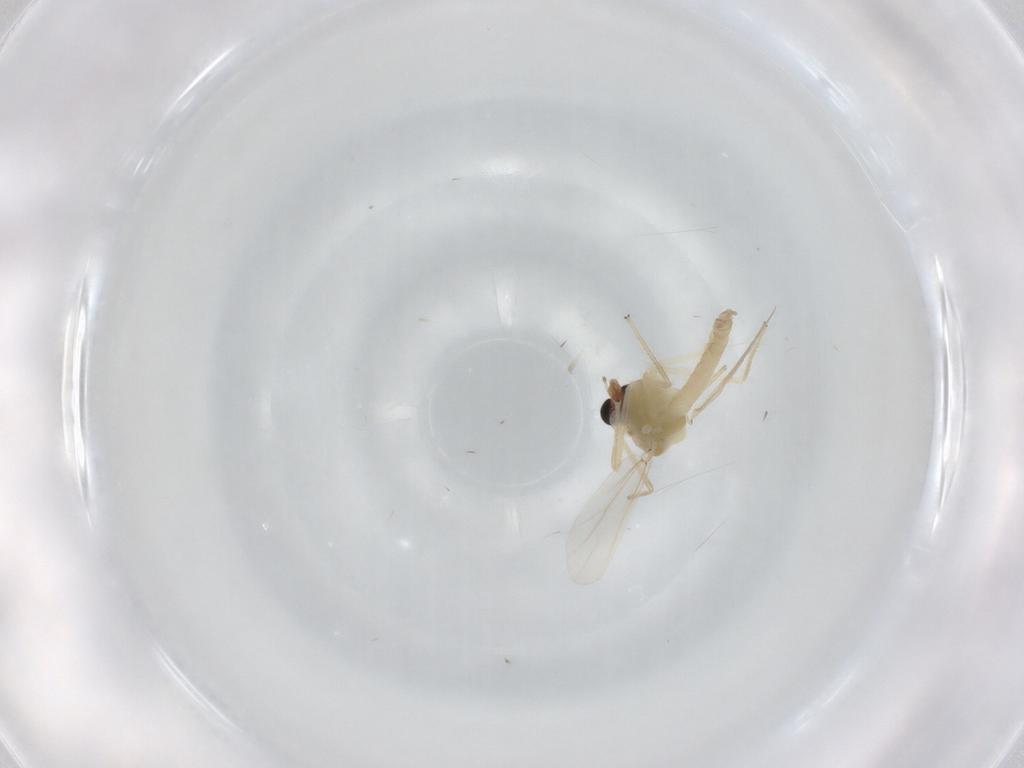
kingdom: Animalia
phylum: Arthropoda
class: Insecta
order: Diptera
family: Chironomidae
